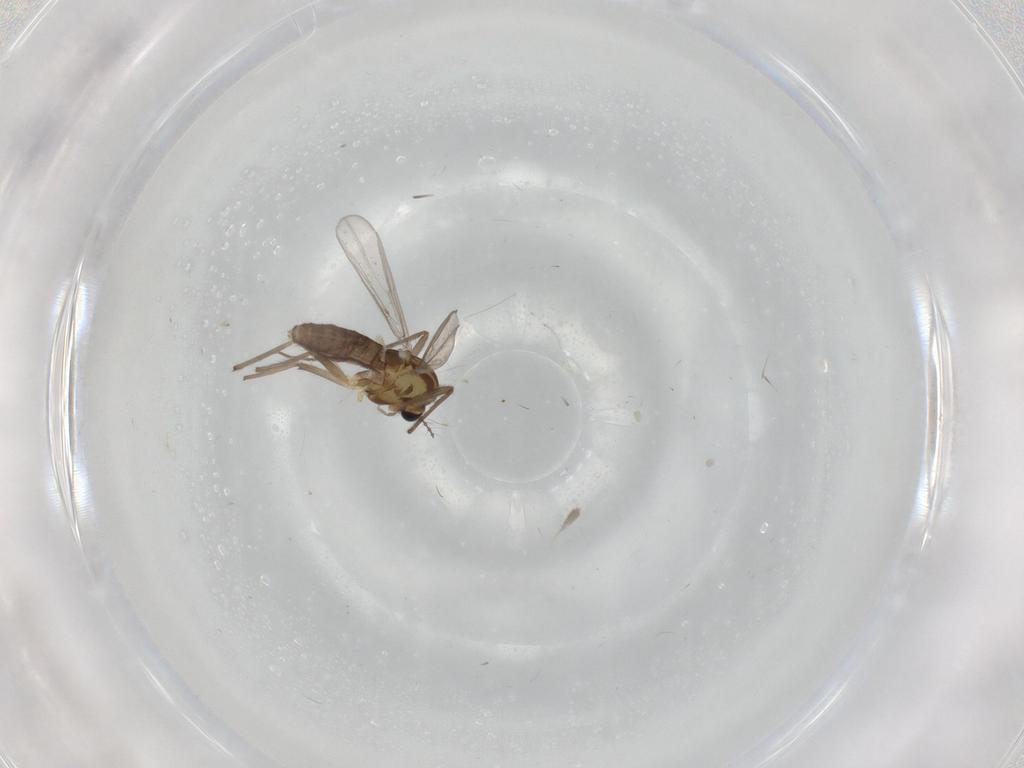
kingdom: Animalia
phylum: Arthropoda
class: Insecta
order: Diptera
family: Chironomidae
